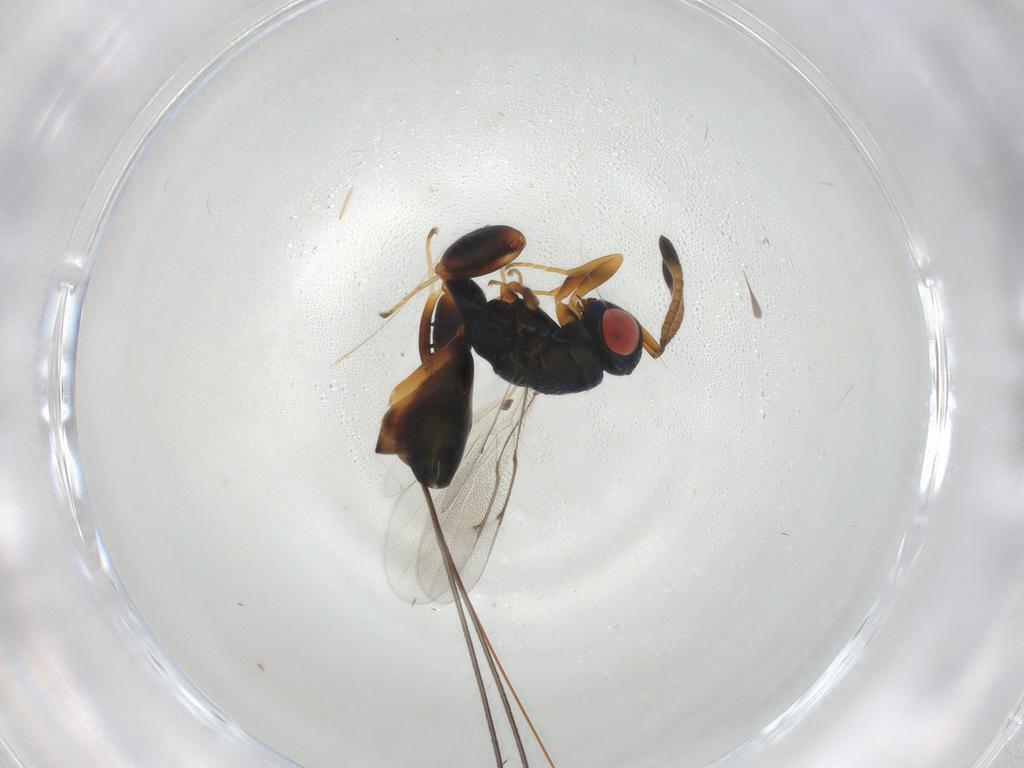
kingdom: Animalia
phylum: Arthropoda
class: Insecta
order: Hymenoptera
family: Torymidae
